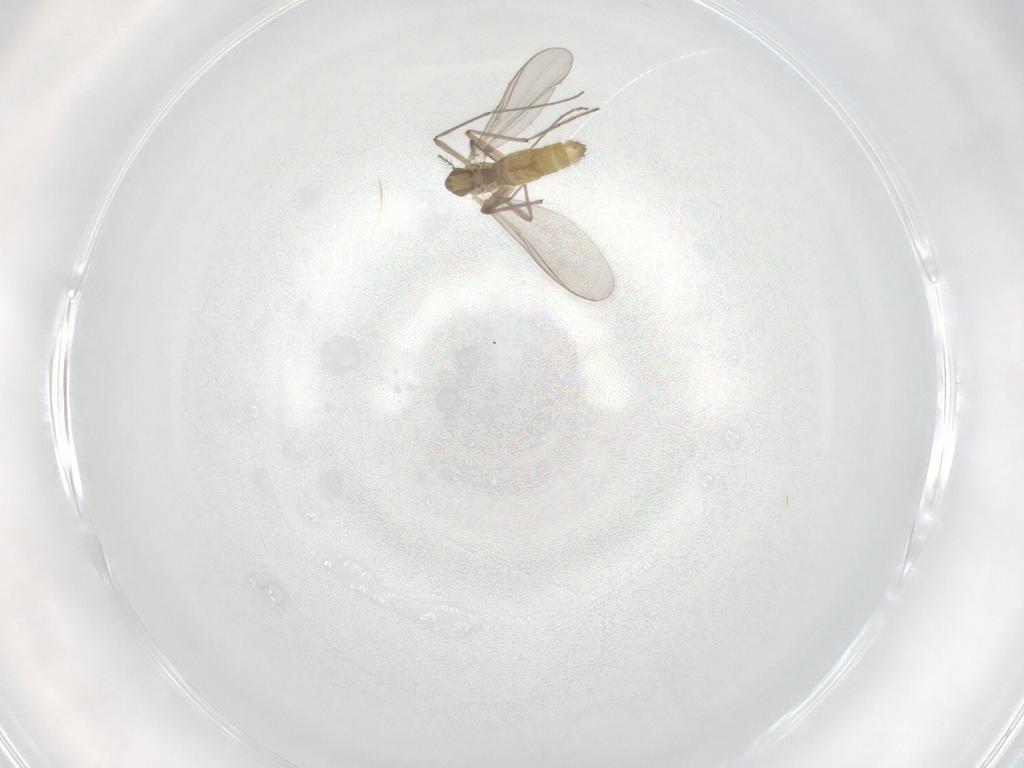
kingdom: Animalia
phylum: Arthropoda
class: Insecta
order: Diptera
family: Chironomidae
